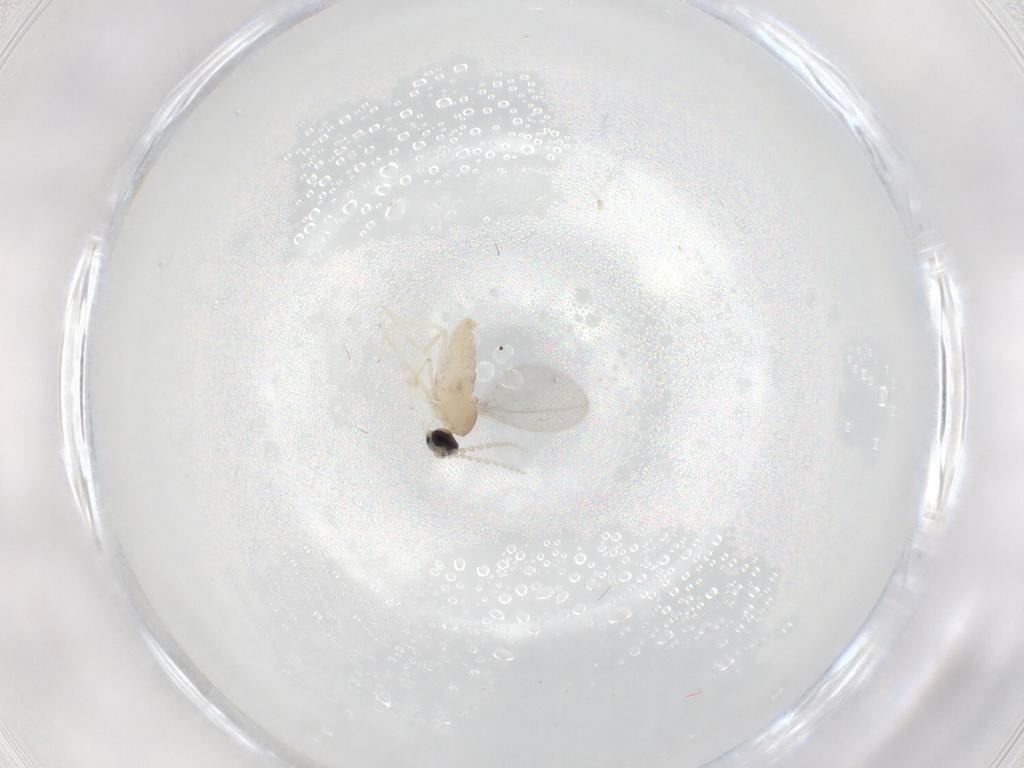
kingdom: Animalia
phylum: Arthropoda
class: Insecta
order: Diptera
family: Cecidomyiidae
